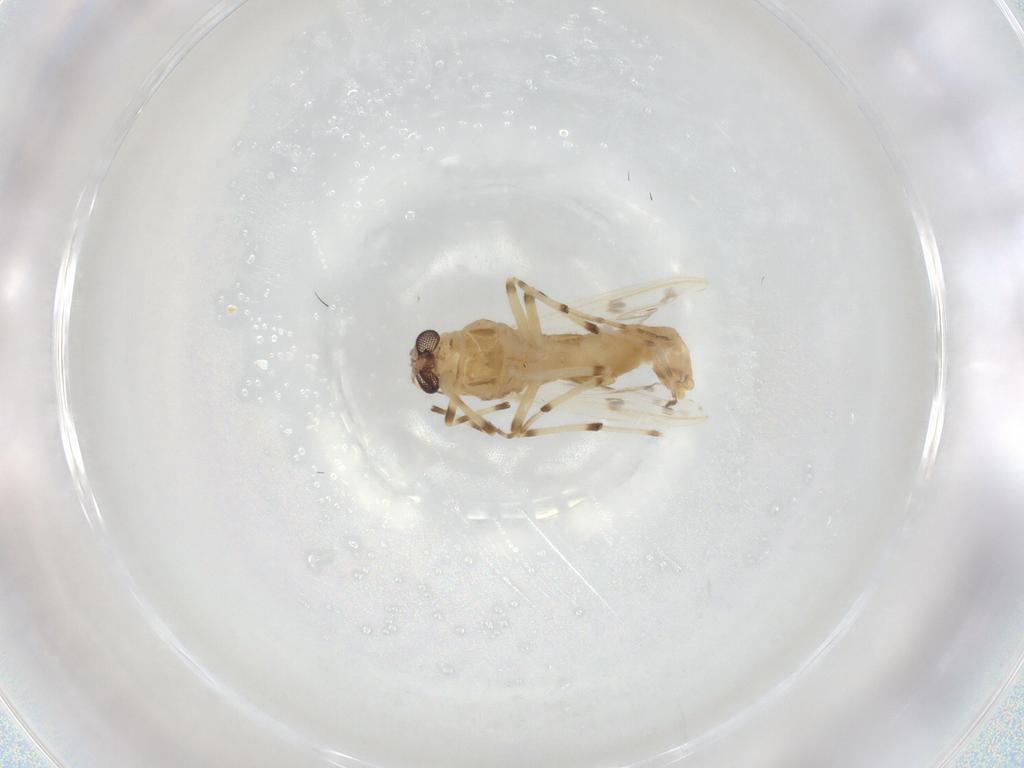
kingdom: Animalia
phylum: Arthropoda
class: Insecta
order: Diptera
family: Chironomidae
